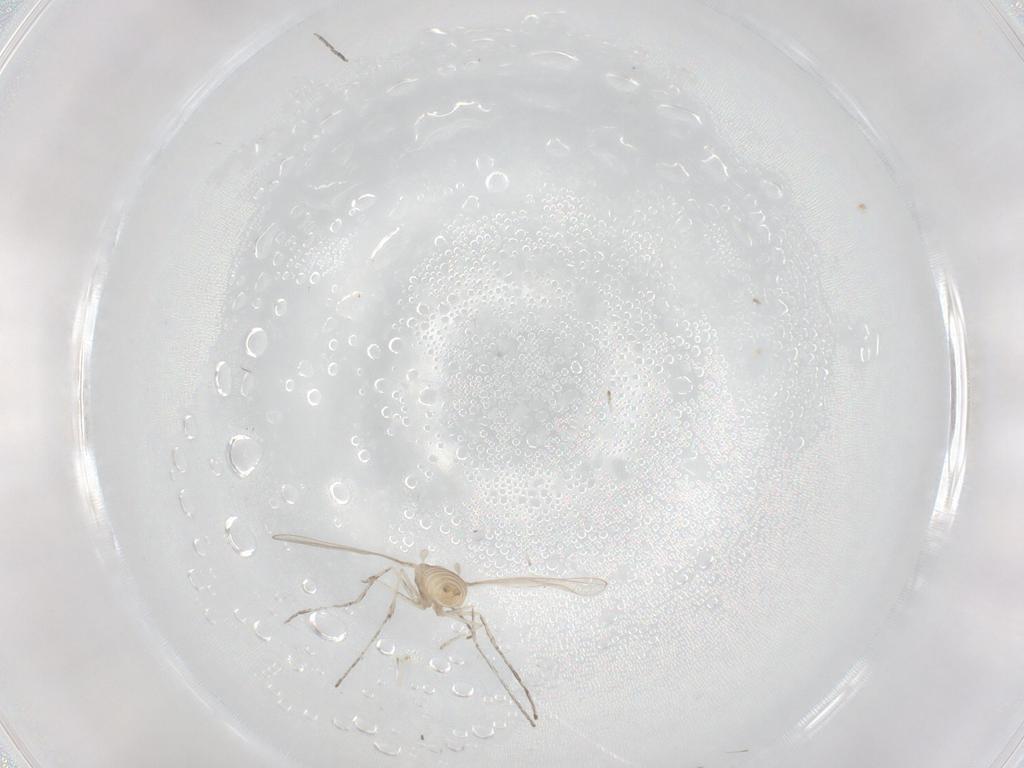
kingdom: Animalia
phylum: Arthropoda
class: Insecta
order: Diptera
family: Cecidomyiidae
